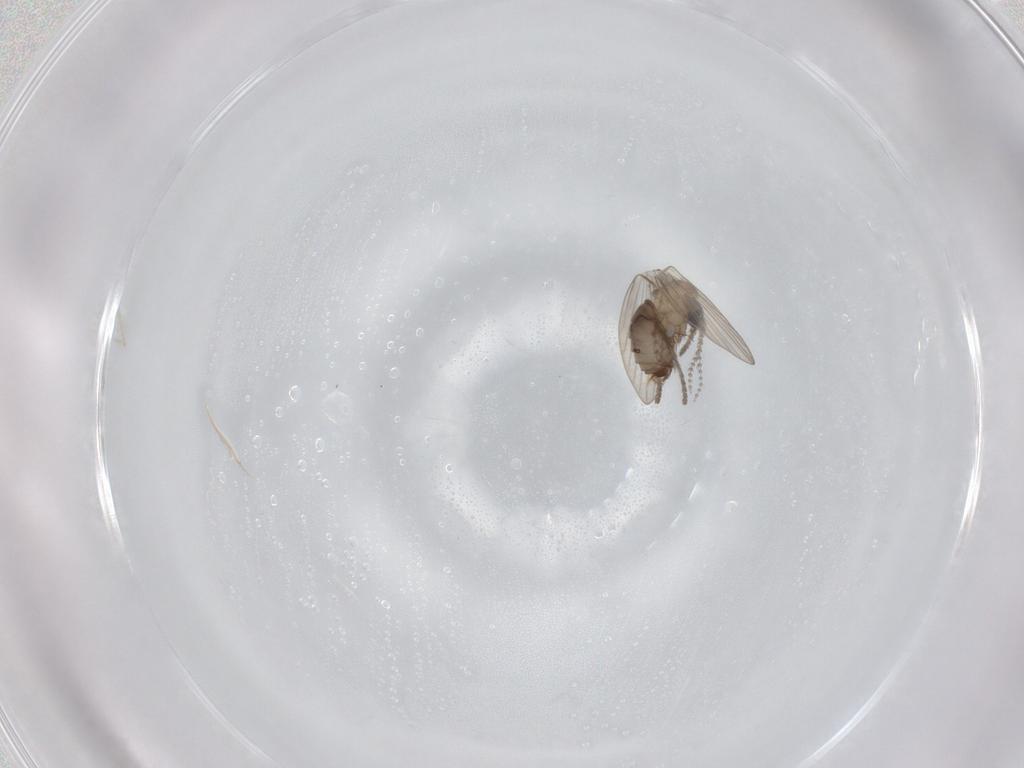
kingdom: Animalia
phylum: Arthropoda
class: Insecta
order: Diptera
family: Psychodidae
